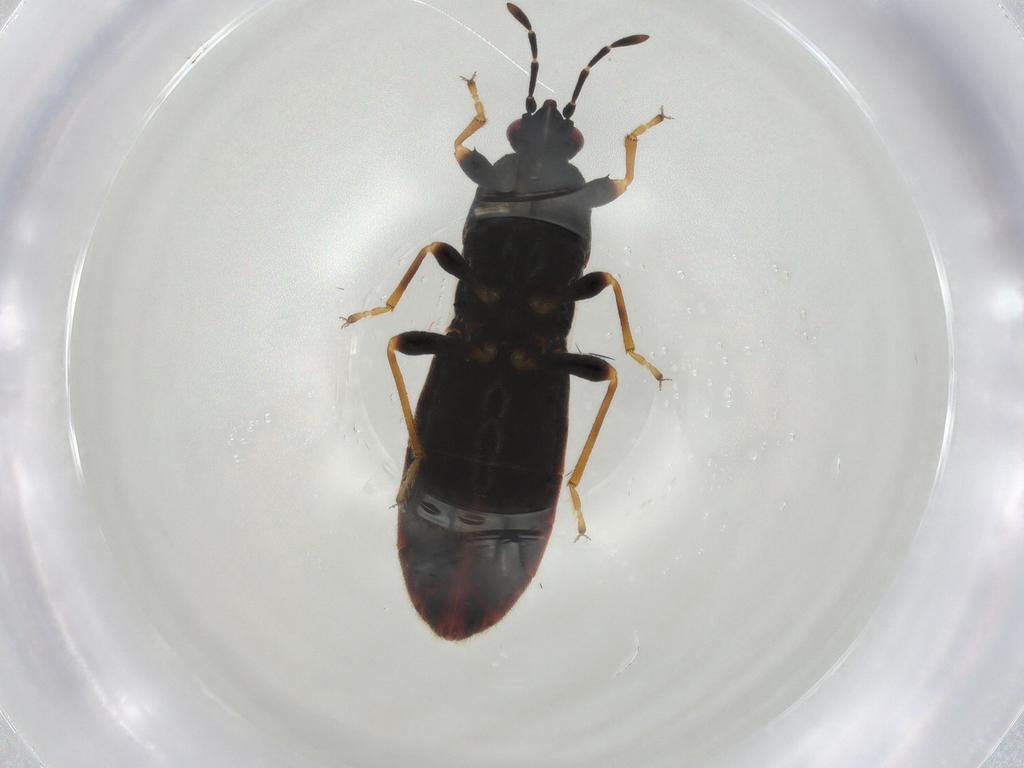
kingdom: Animalia
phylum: Arthropoda
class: Insecta
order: Hemiptera
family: Blissidae
